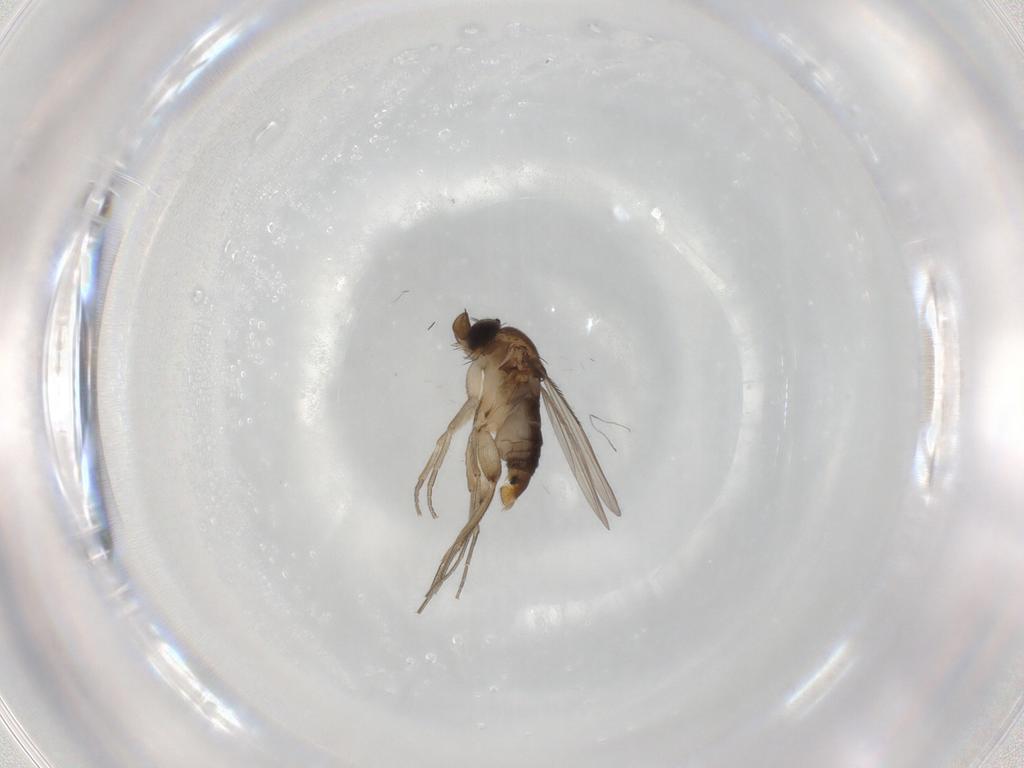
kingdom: Animalia
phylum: Arthropoda
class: Insecta
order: Diptera
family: Phoridae
